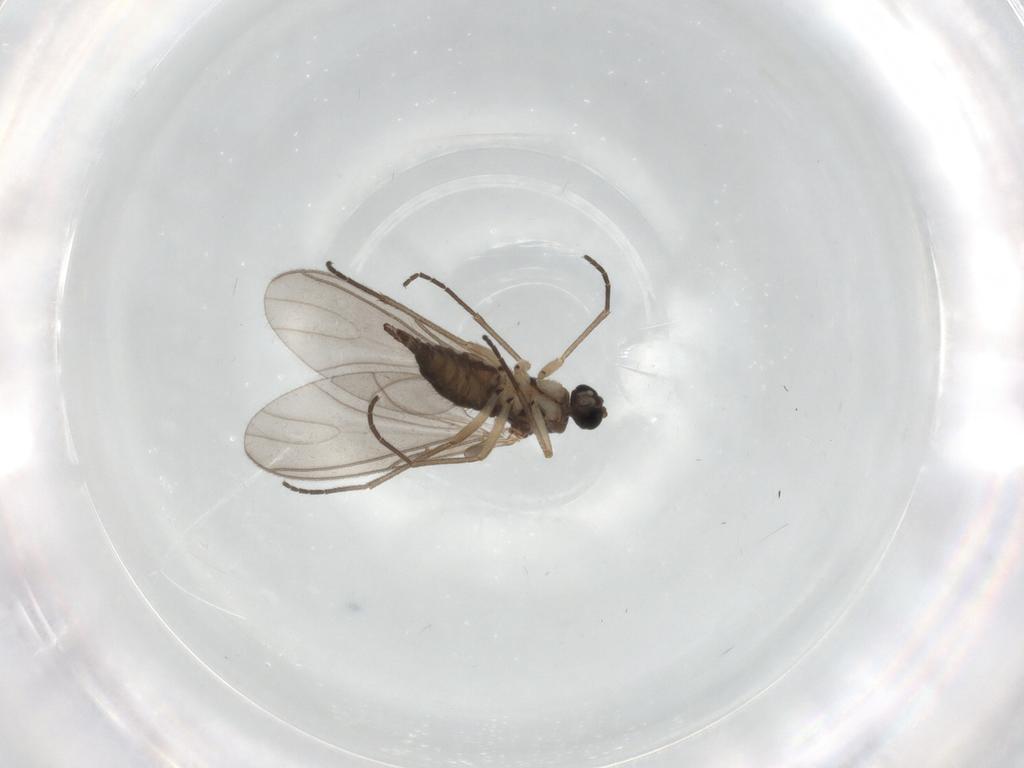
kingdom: Animalia
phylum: Arthropoda
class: Insecta
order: Diptera
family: Sciaridae
